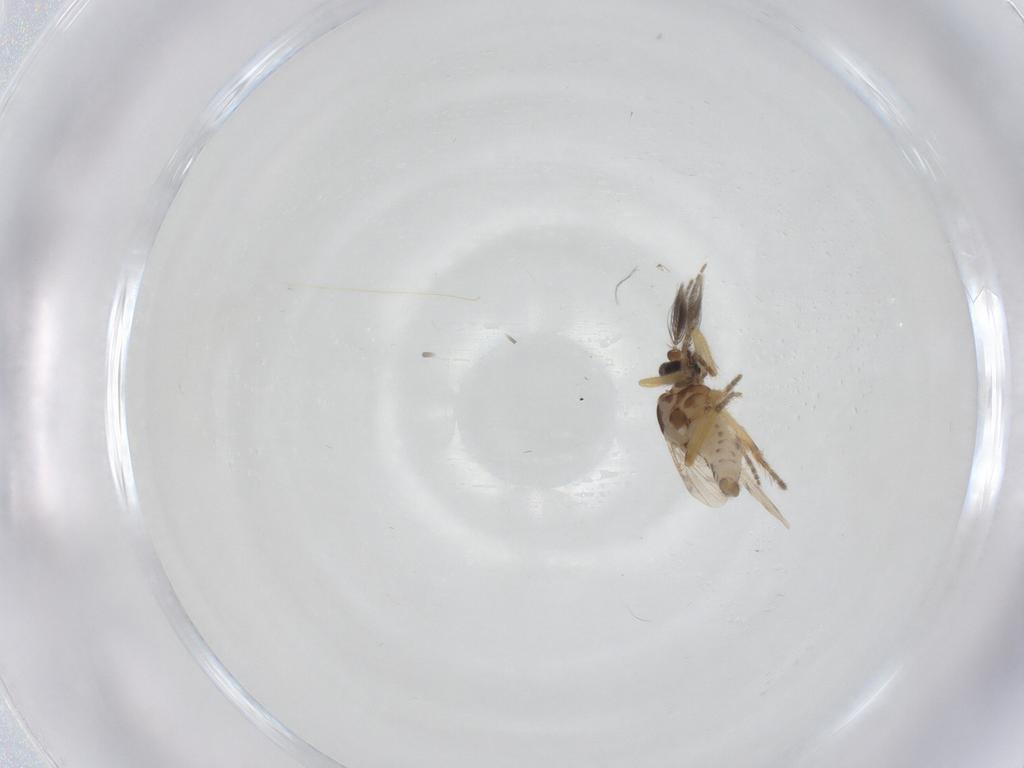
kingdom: Animalia
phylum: Arthropoda
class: Insecta
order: Diptera
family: Ceratopogonidae
